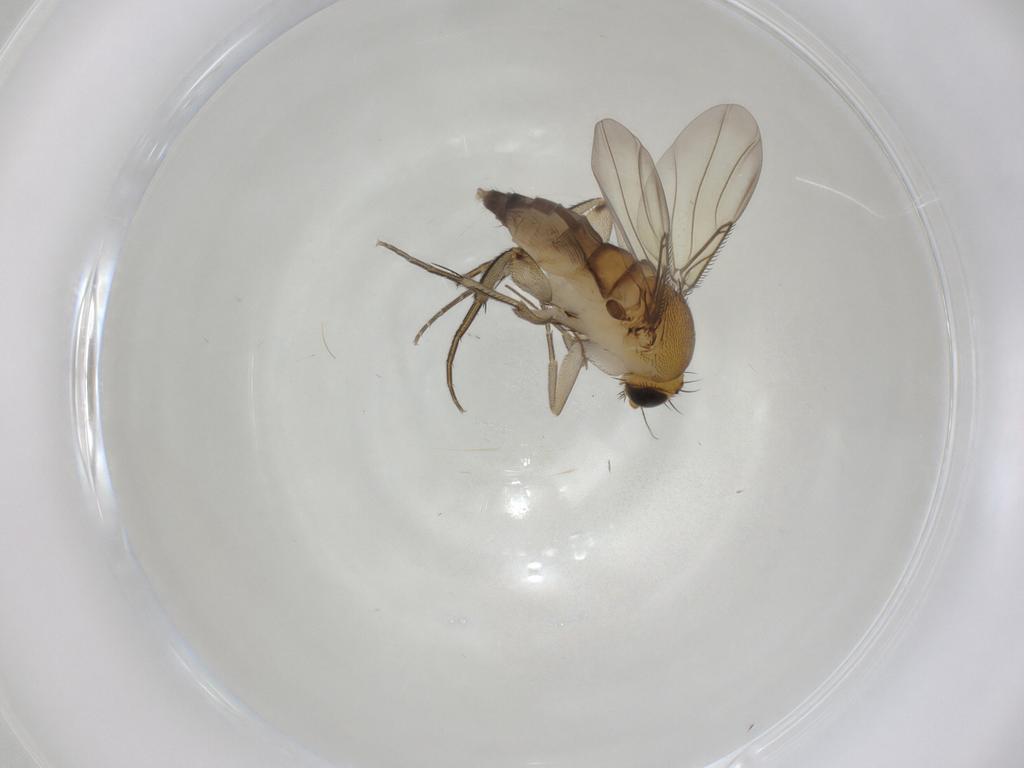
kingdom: Animalia
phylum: Arthropoda
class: Insecta
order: Diptera
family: Phoridae
